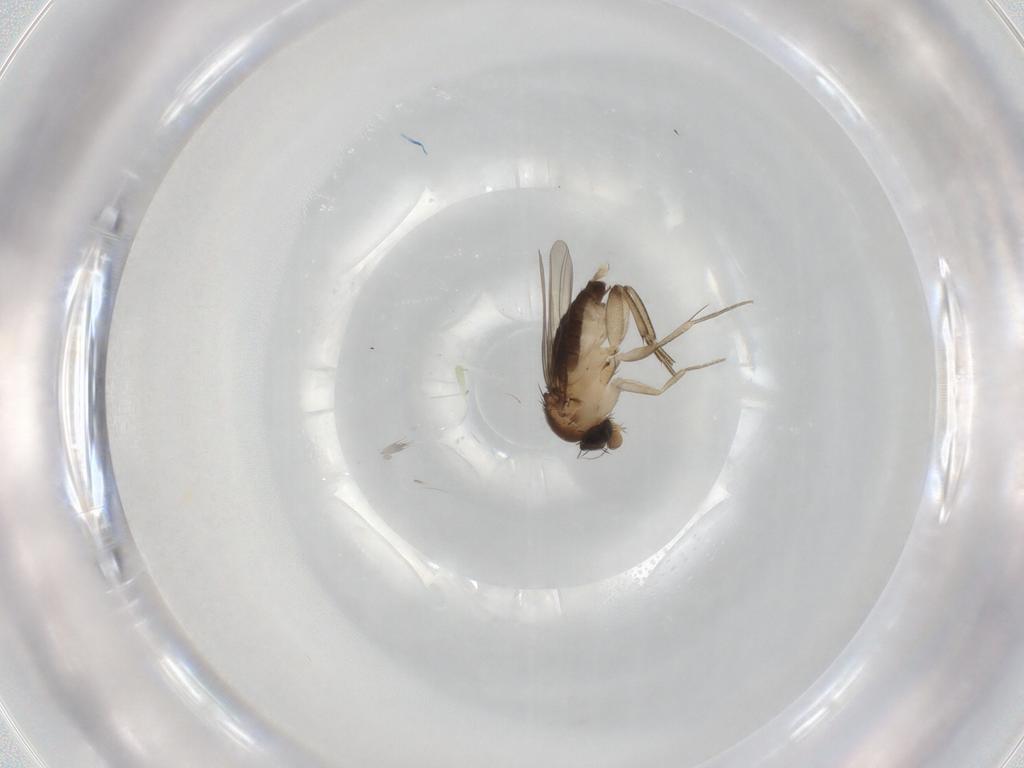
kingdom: Animalia
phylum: Arthropoda
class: Insecta
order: Diptera
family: Phoridae
